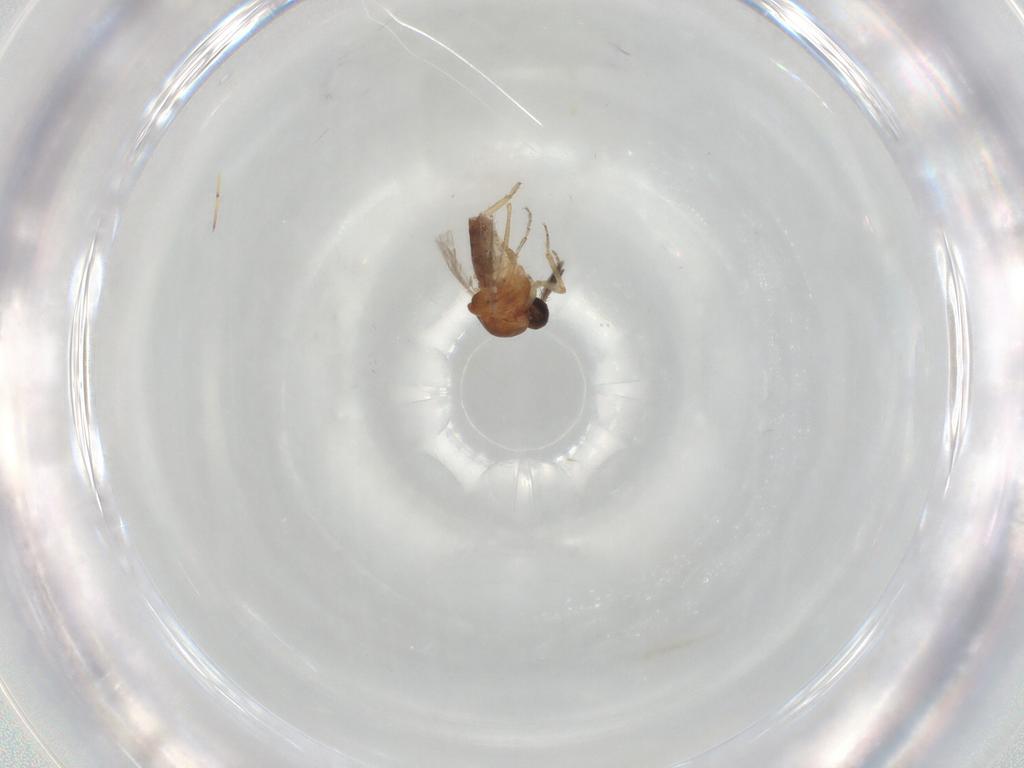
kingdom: Animalia
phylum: Arthropoda
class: Insecta
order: Diptera
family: Ceratopogonidae
